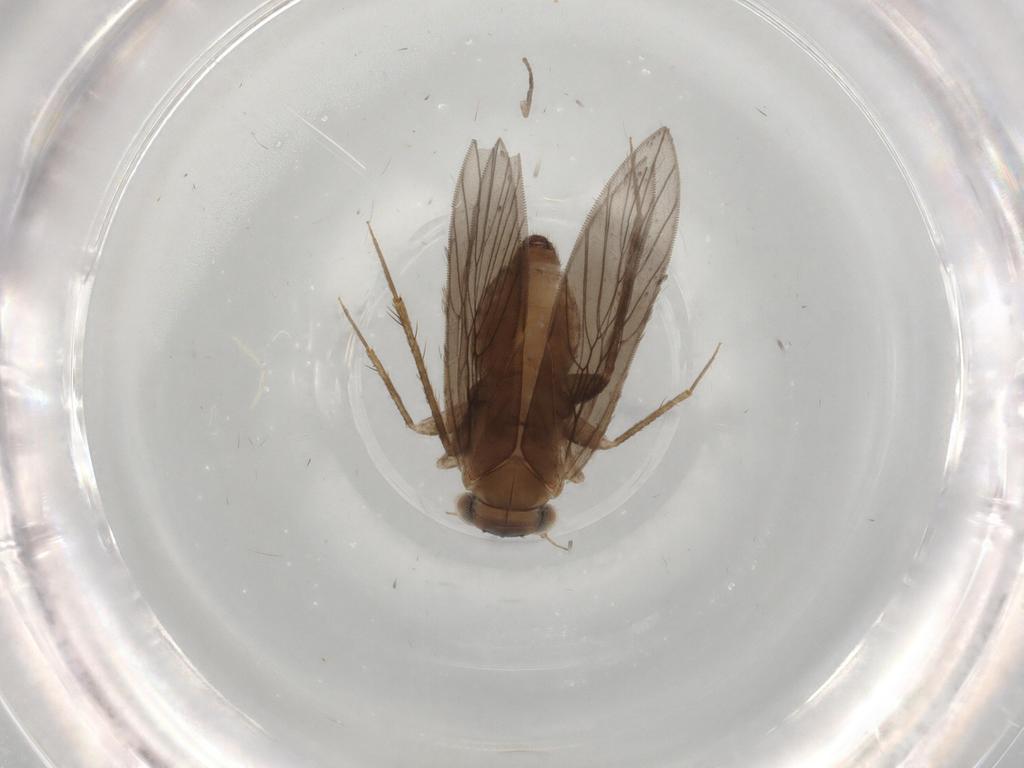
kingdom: Animalia
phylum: Arthropoda
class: Insecta
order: Psocodea
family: Lepidopsocidae
